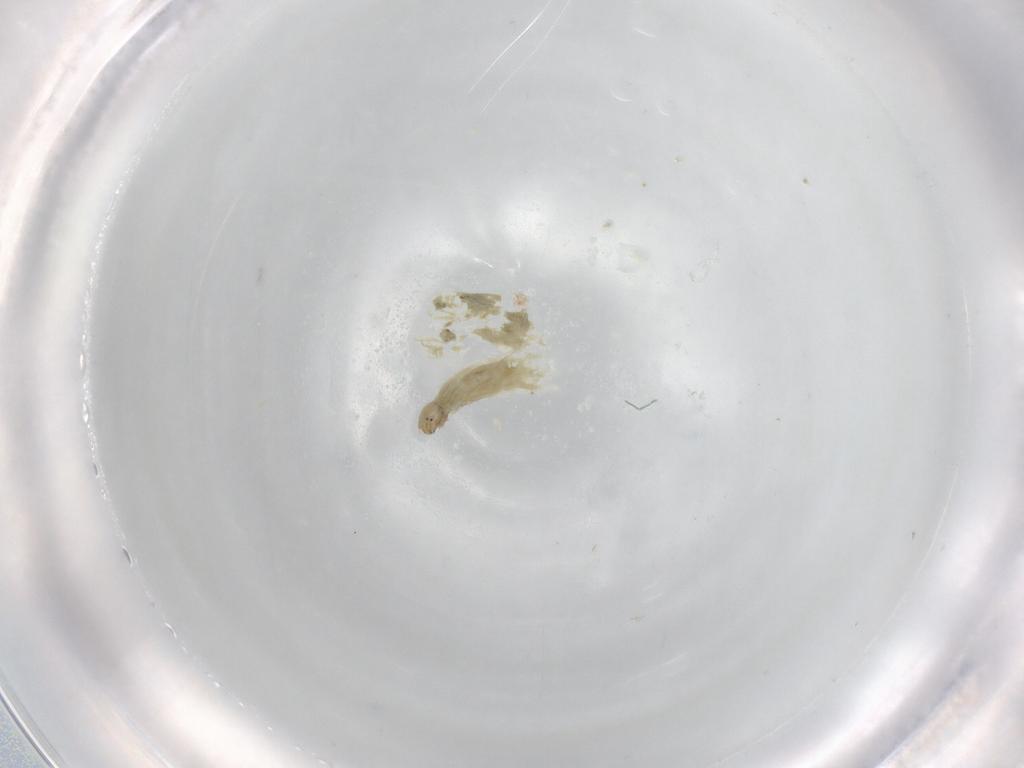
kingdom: Animalia
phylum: Arthropoda
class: Insecta
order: Diptera
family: Chironomidae
